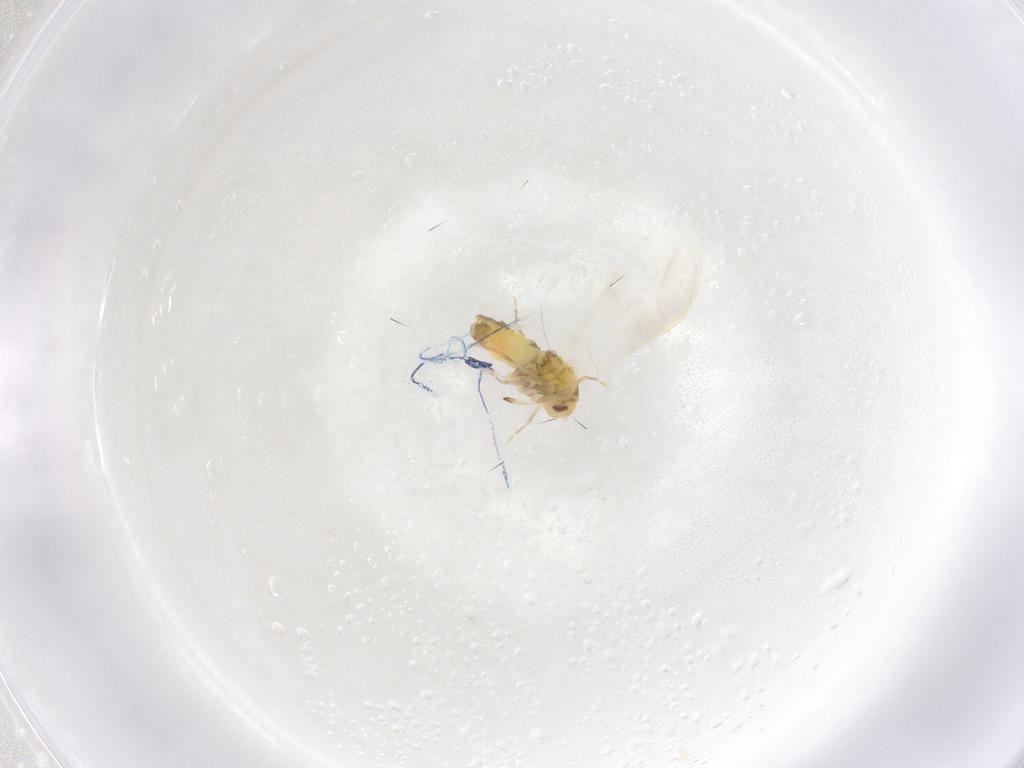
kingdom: Animalia
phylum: Arthropoda
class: Insecta
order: Hemiptera
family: Aleyrodidae
